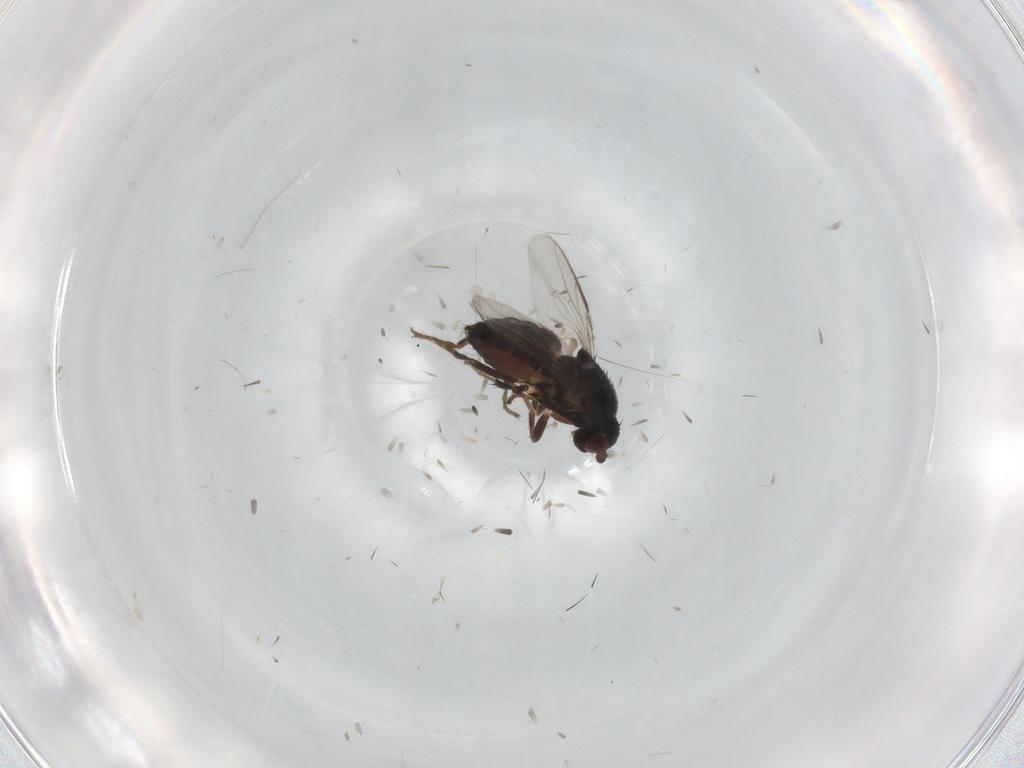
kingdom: Animalia
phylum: Arthropoda
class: Insecta
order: Diptera
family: Sphaeroceridae
